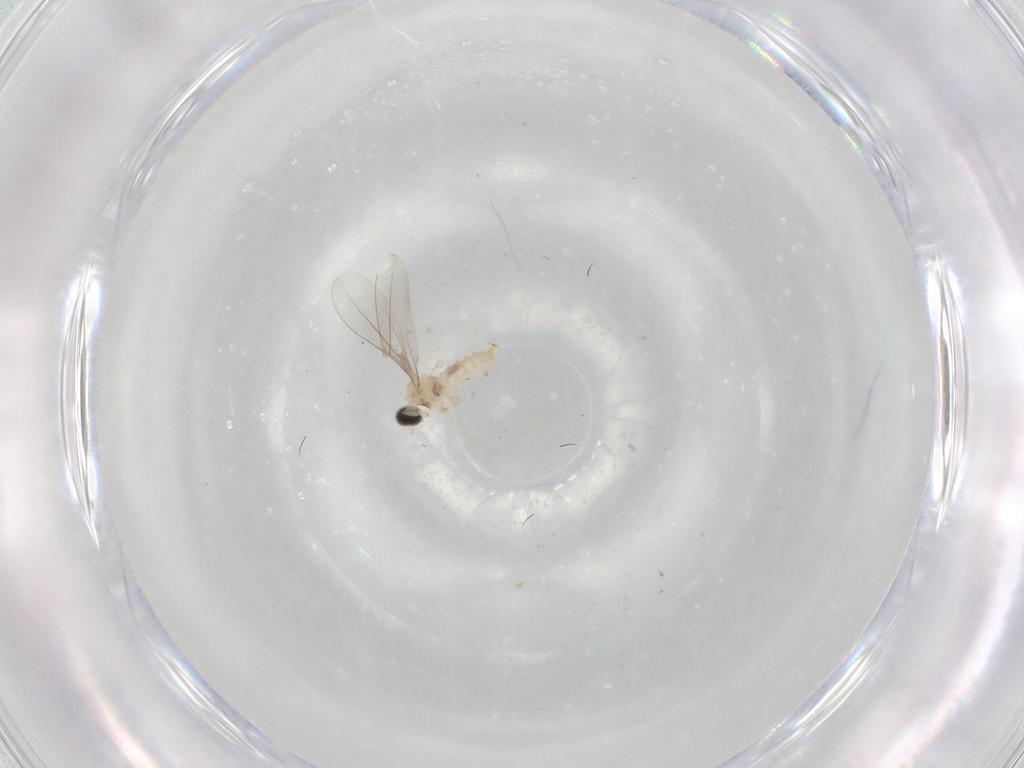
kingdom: Animalia
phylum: Arthropoda
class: Insecta
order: Diptera
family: Cecidomyiidae
